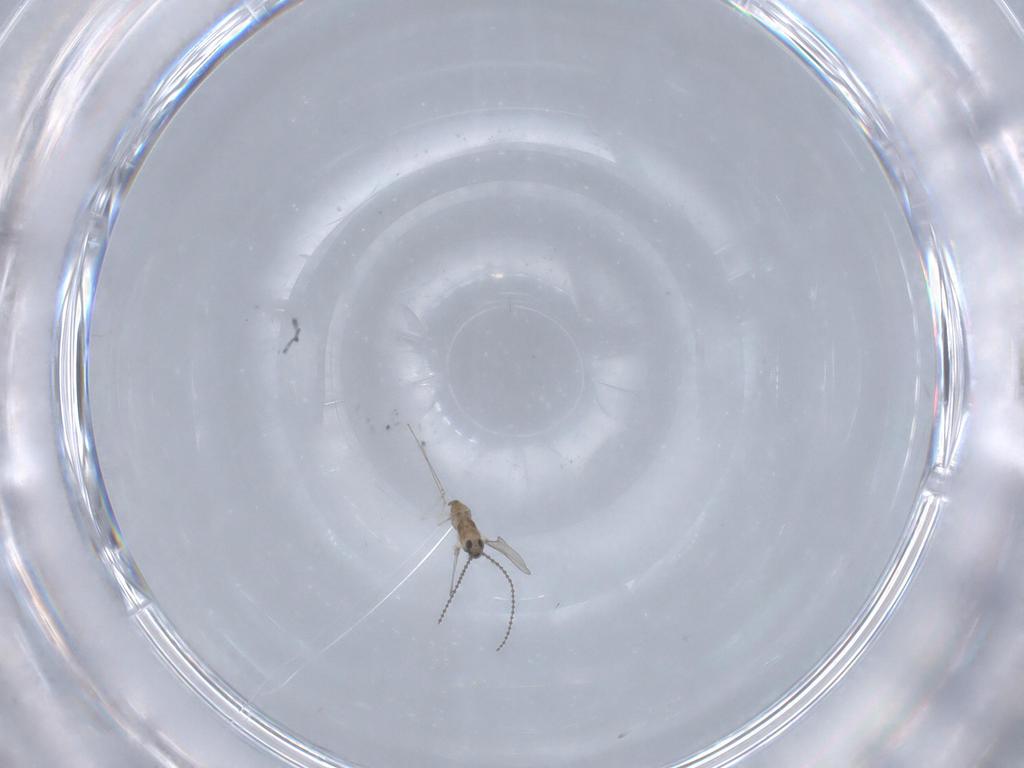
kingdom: Animalia
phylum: Arthropoda
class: Insecta
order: Diptera
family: Cecidomyiidae
